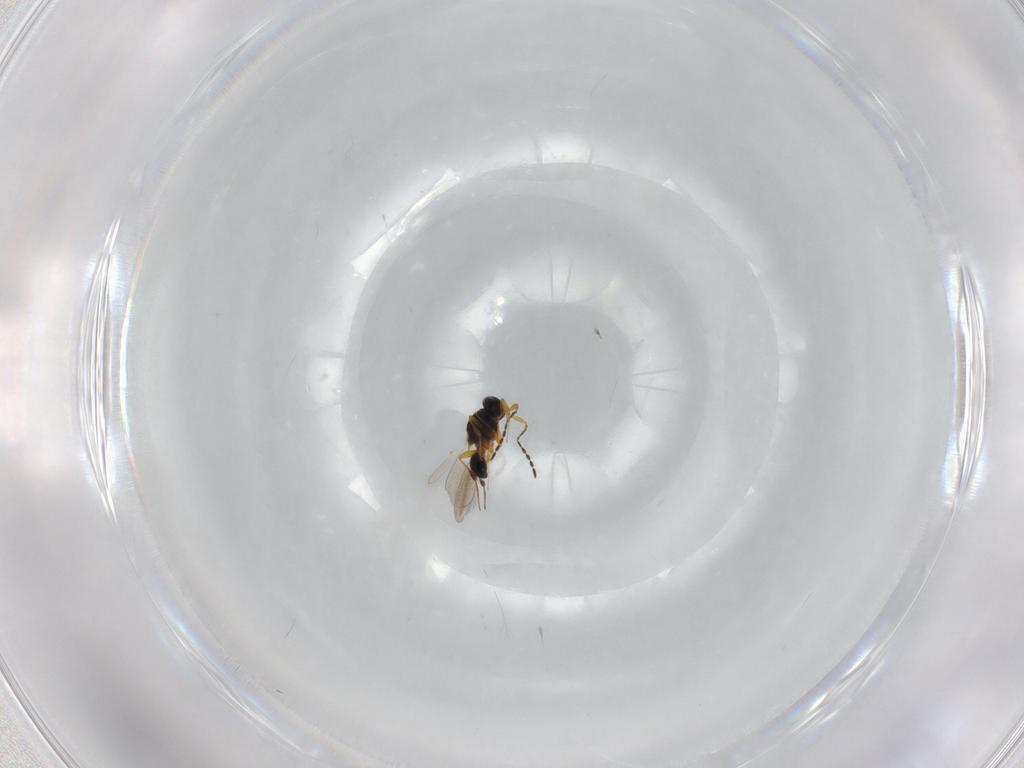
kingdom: Animalia
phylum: Arthropoda
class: Insecta
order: Hymenoptera
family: Platygastridae
